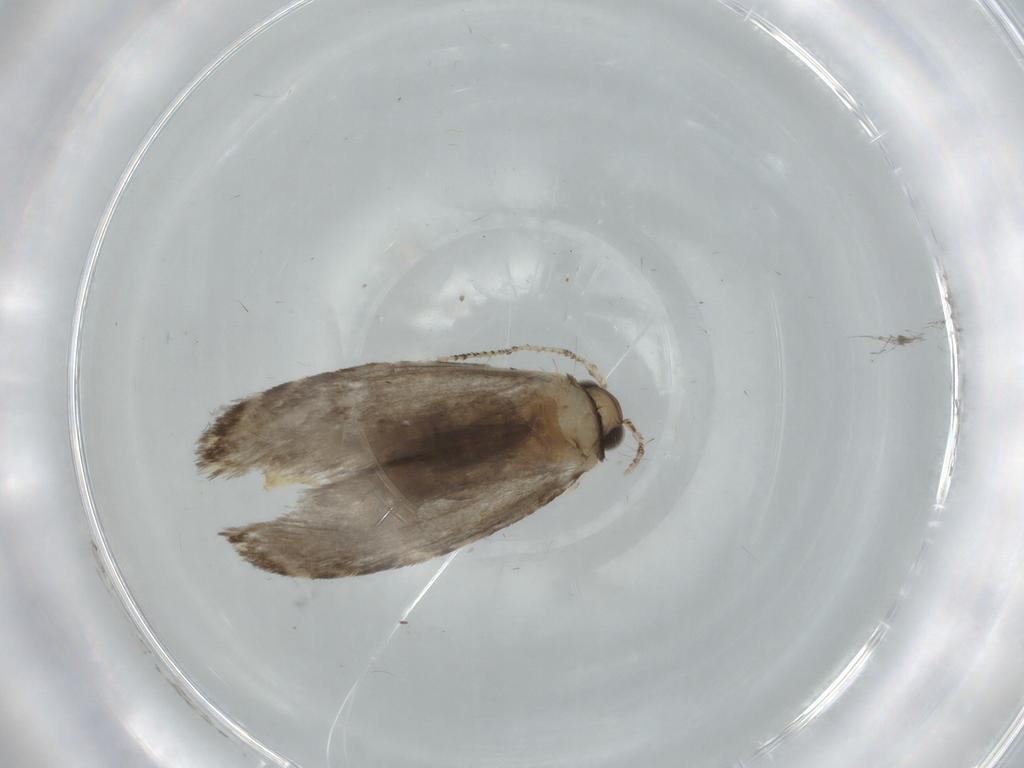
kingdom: Animalia
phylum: Arthropoda
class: Insecta
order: Lepidoptera
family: Tineidae
